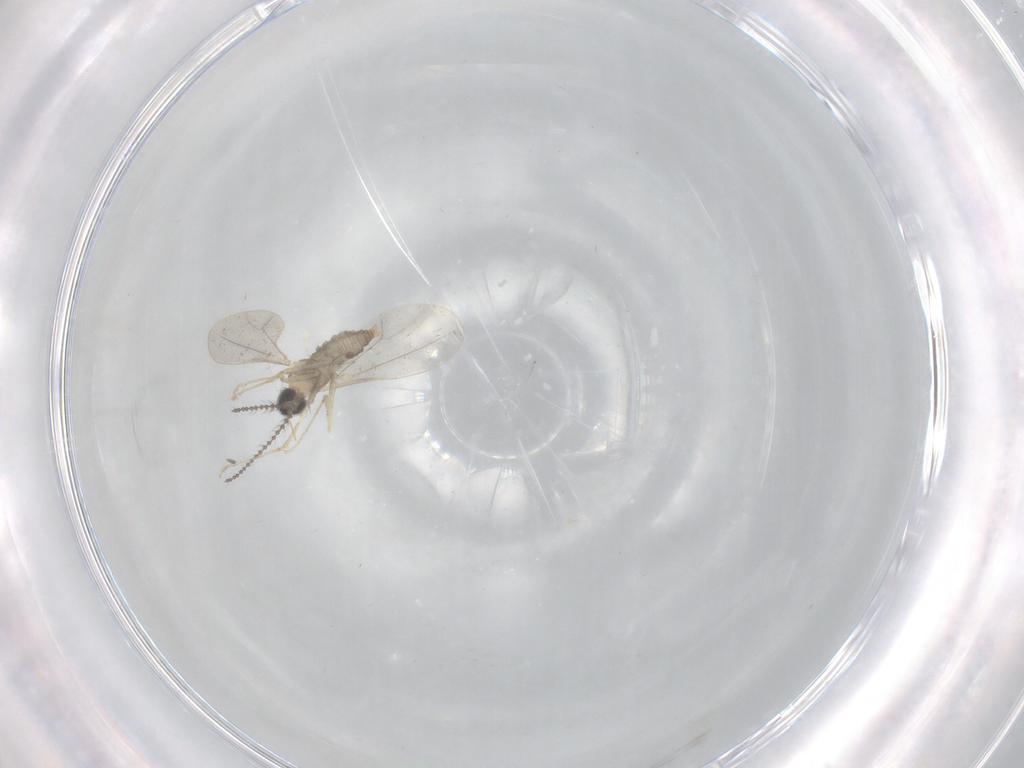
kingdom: Animalia
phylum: Arthropoda
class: Insecta
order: Diptera
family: Cecidomyiidae
